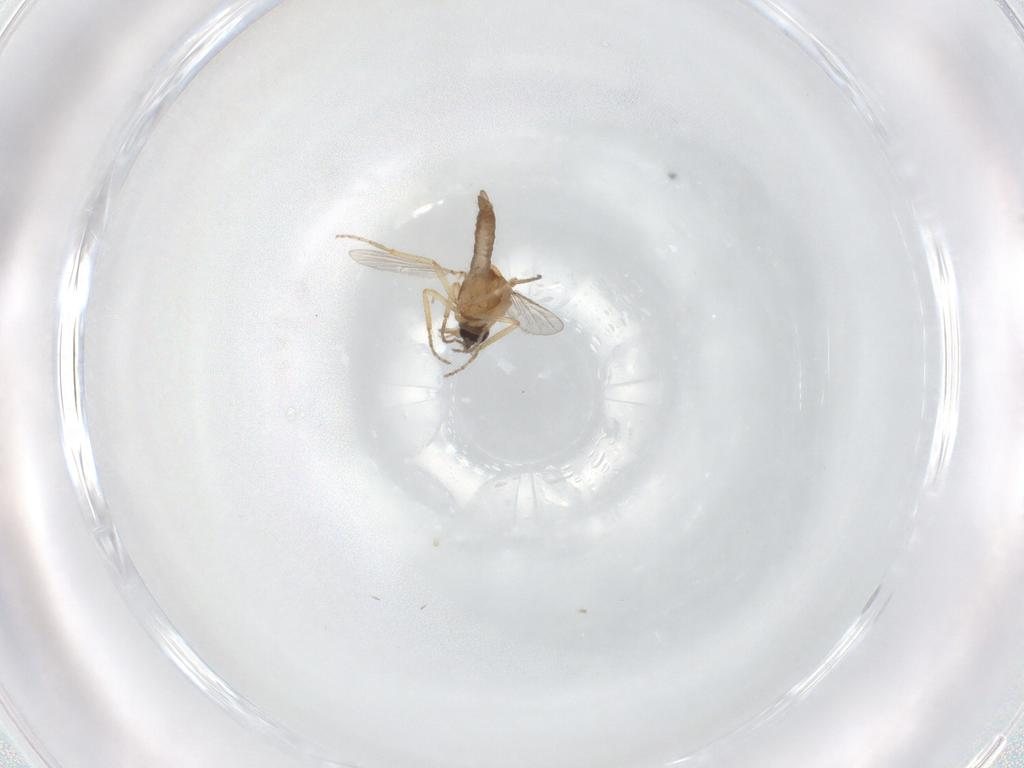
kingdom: Animalia
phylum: Arthropoda
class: Insecta
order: Diptera
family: Ceratopogonidae
